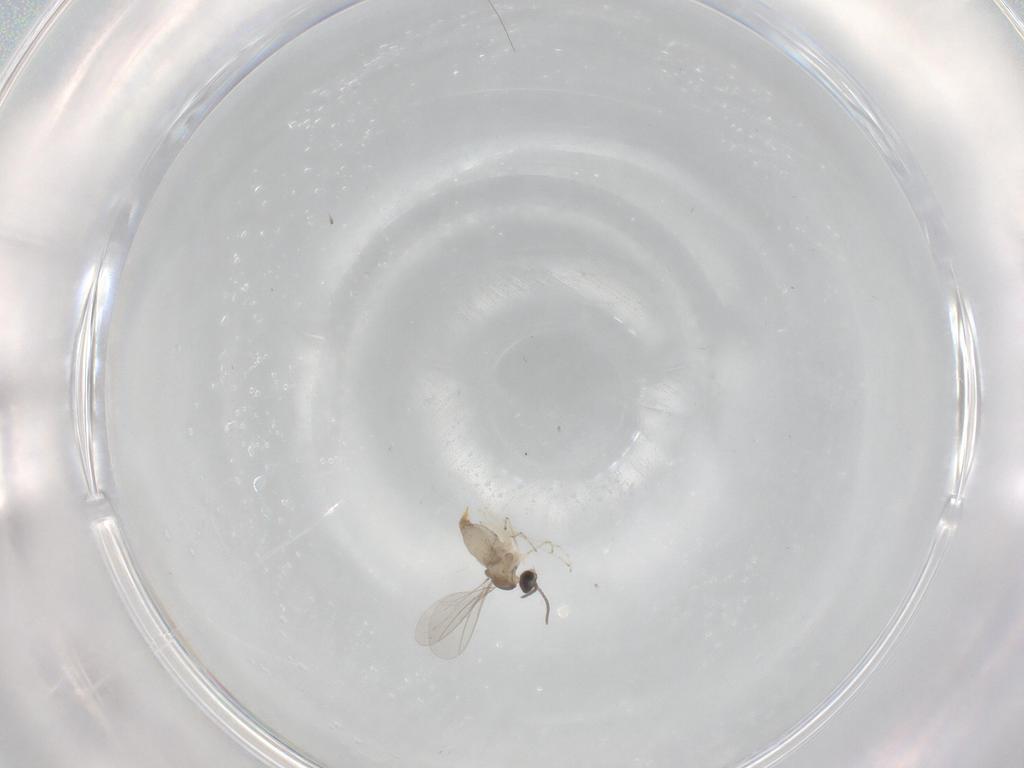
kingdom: Animalia
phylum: Arthropoda
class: Insecta
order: Diptera
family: Cecidomyiidae
